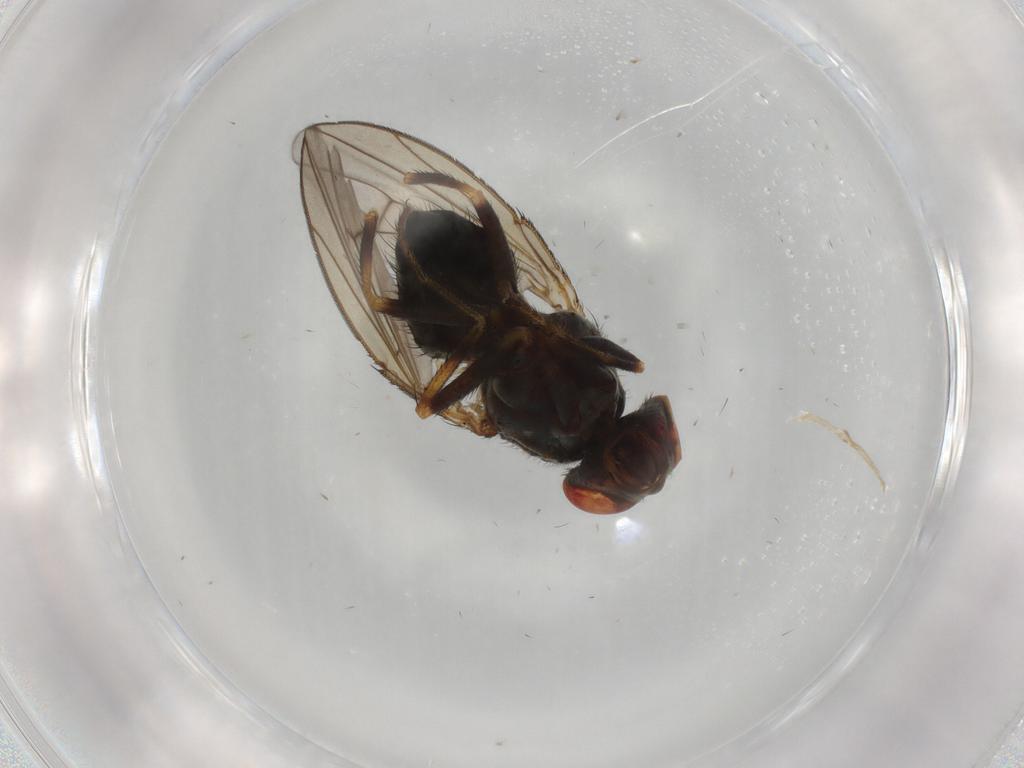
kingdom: Animalia
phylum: Arthropoda
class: Insecta
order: Diptera
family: Ephydridae
